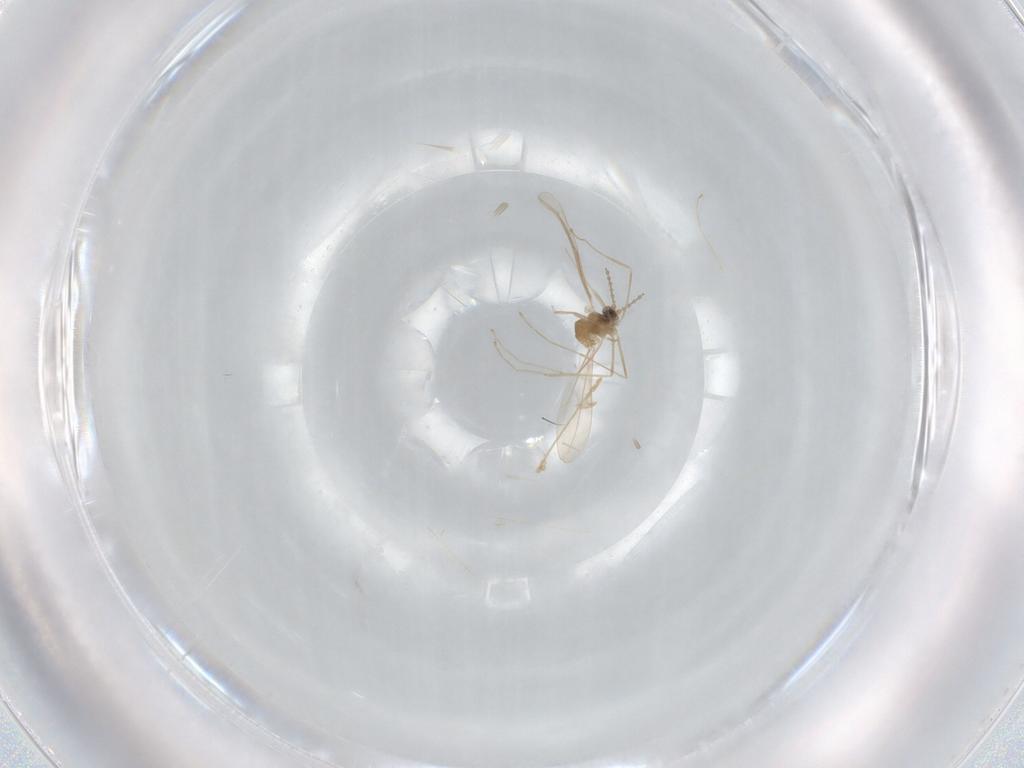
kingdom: Animalia
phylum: Arthropoda
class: Insecta
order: Diptera
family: Cecidomyiidae
